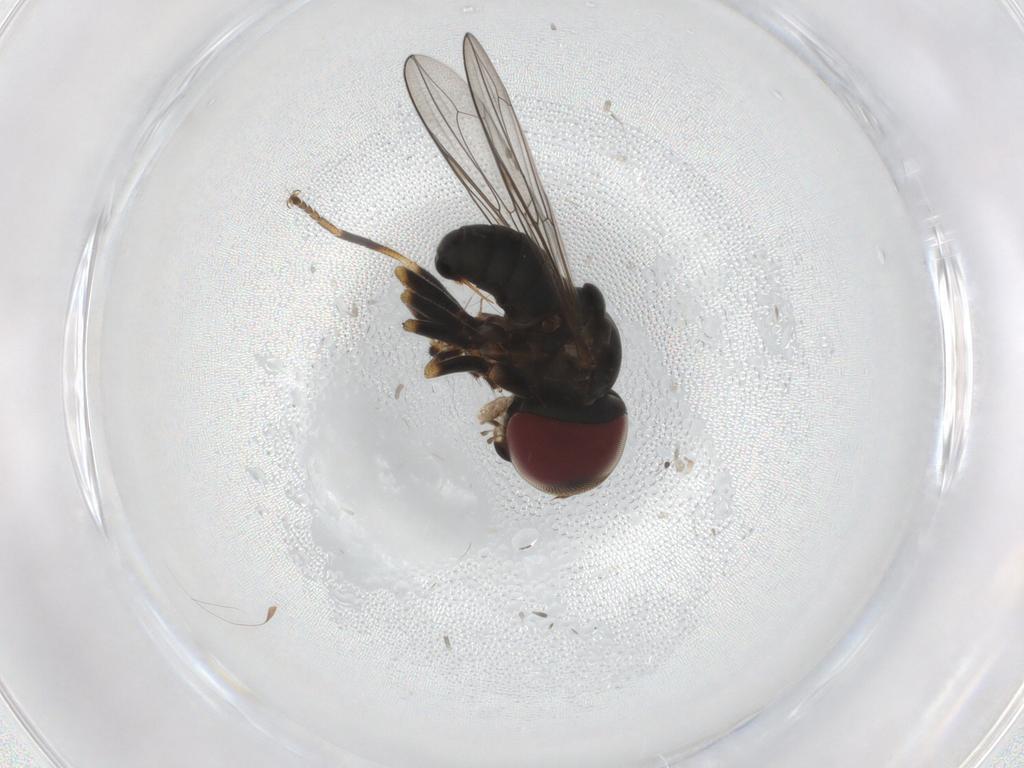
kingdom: Animalia
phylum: Arthropoda
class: Insecta
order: Diptera
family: Pipunculidae
